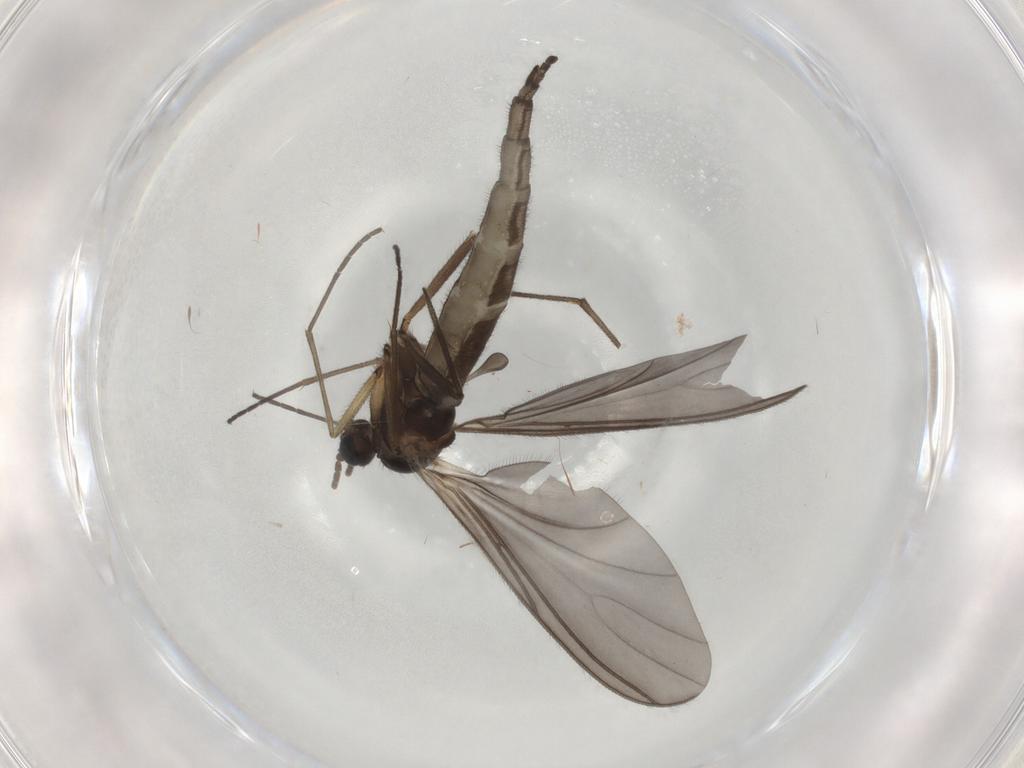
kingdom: Animalia
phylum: Arthropoda
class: Insecta
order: Diptera
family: Sciaridae
